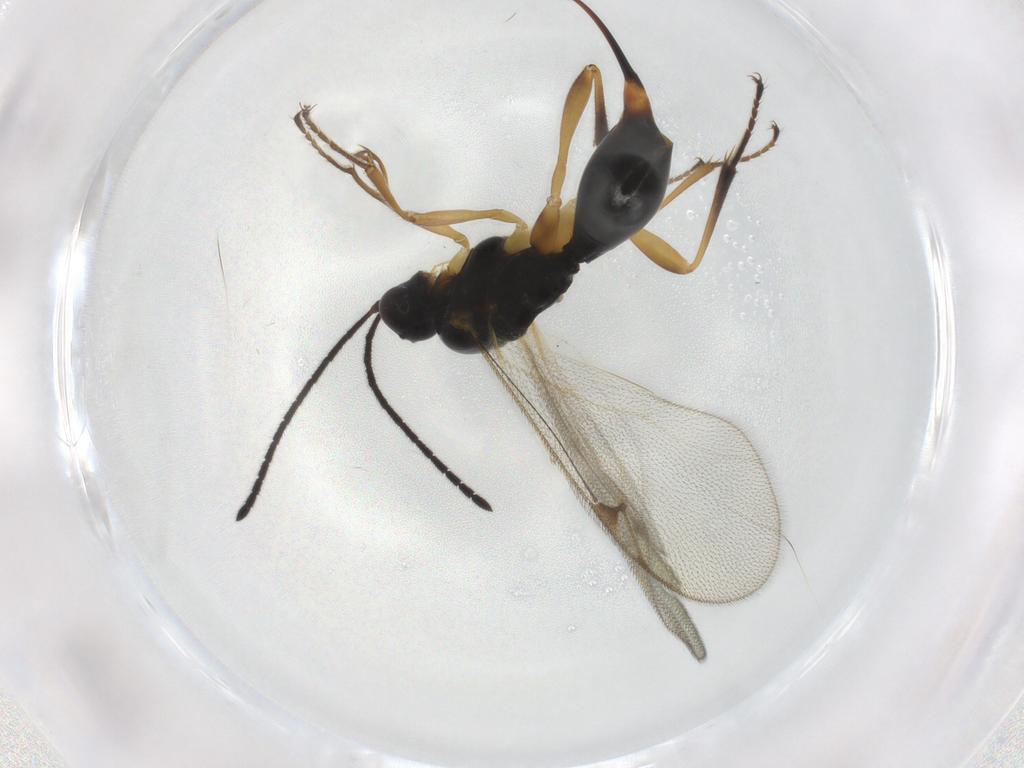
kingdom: Animalia
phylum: Arthropoda
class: Insecta
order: Hymenoptera
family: Proctotrupidae
